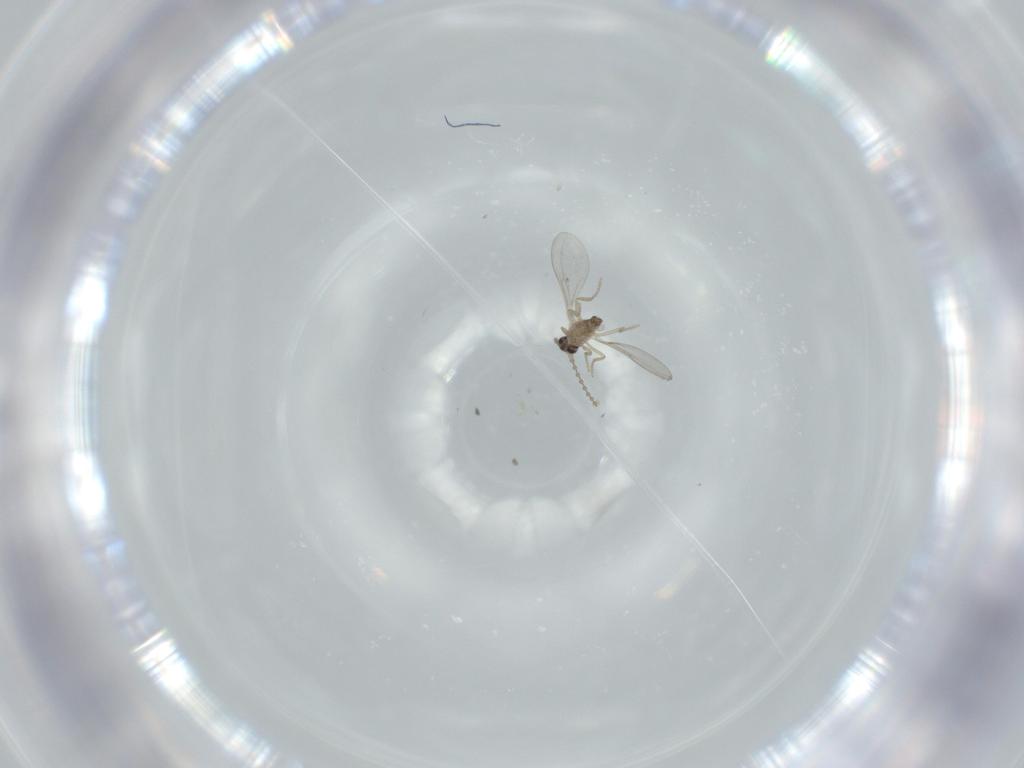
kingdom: Animalia
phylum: Arthropoda
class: Insecta
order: Diptera
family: Cecidomyiidae
